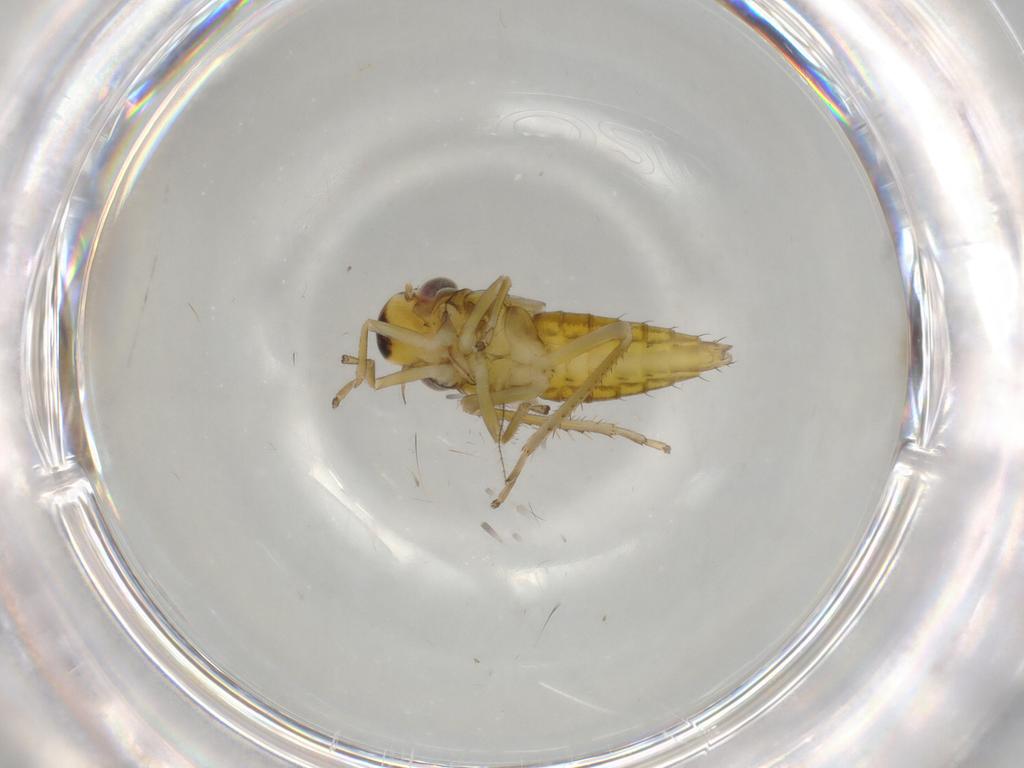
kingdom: Animalia
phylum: Arthropoda
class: Insecta
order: Hemiptera
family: Cicadellidae
